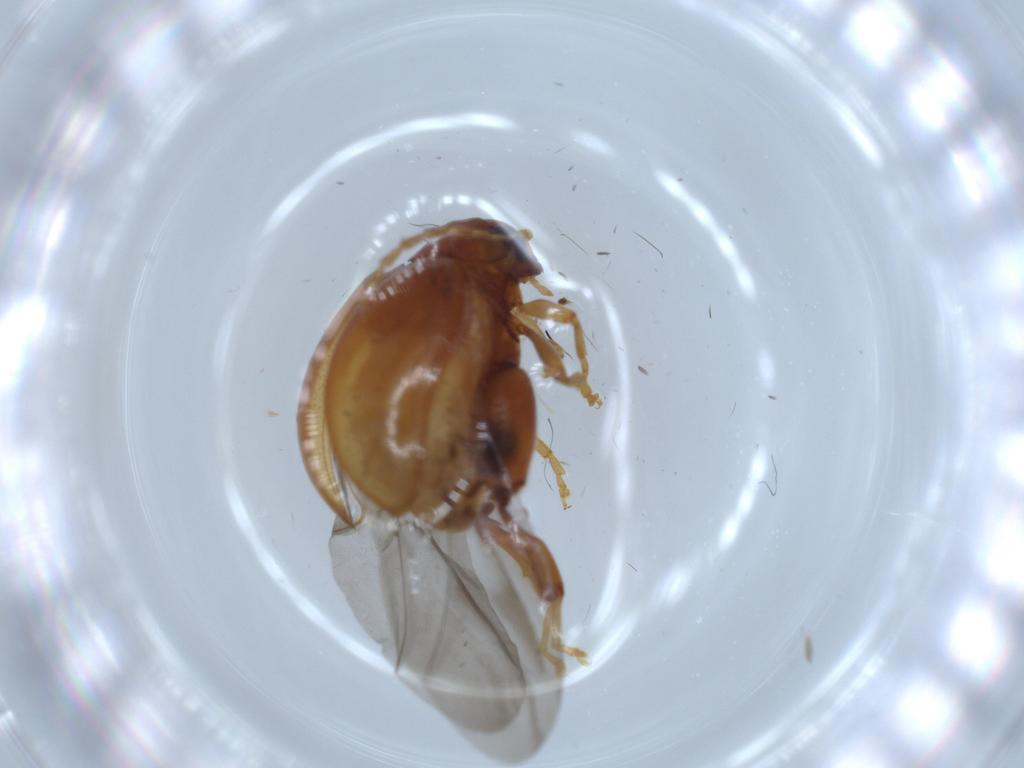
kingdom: Animalia
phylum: Arthropoda
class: Insecta
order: Coleoptera
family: Chrysomelidae
